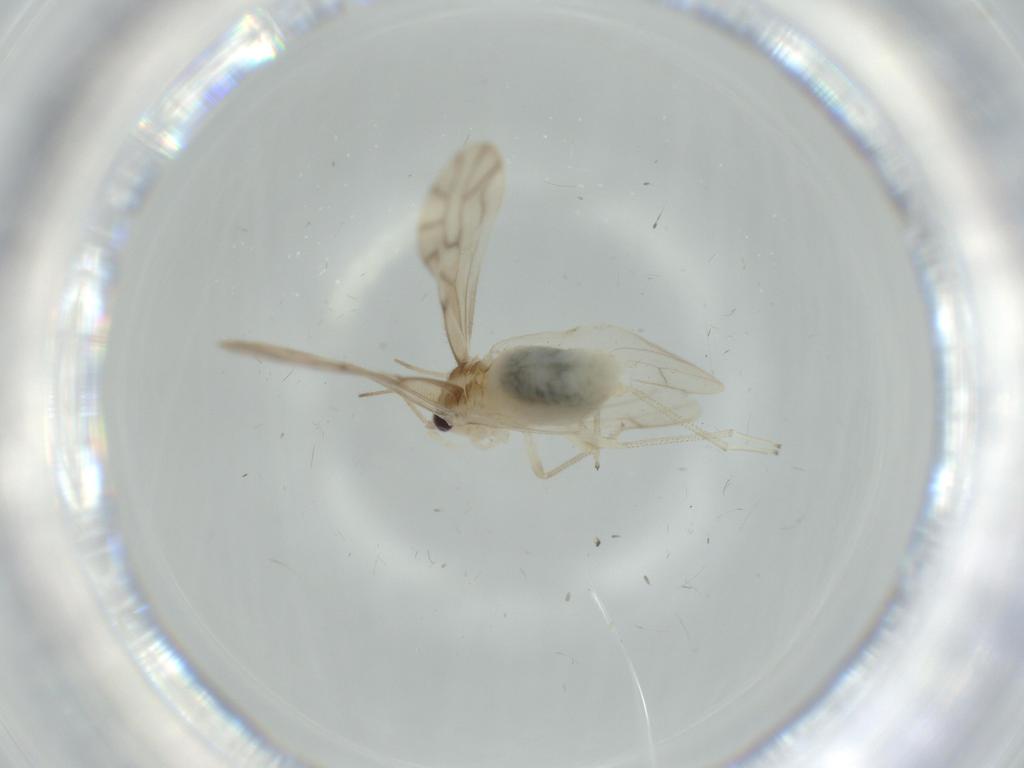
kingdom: Animalia
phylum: Arthropoda
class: Insecta
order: Psocodea
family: Caeciliusidae
